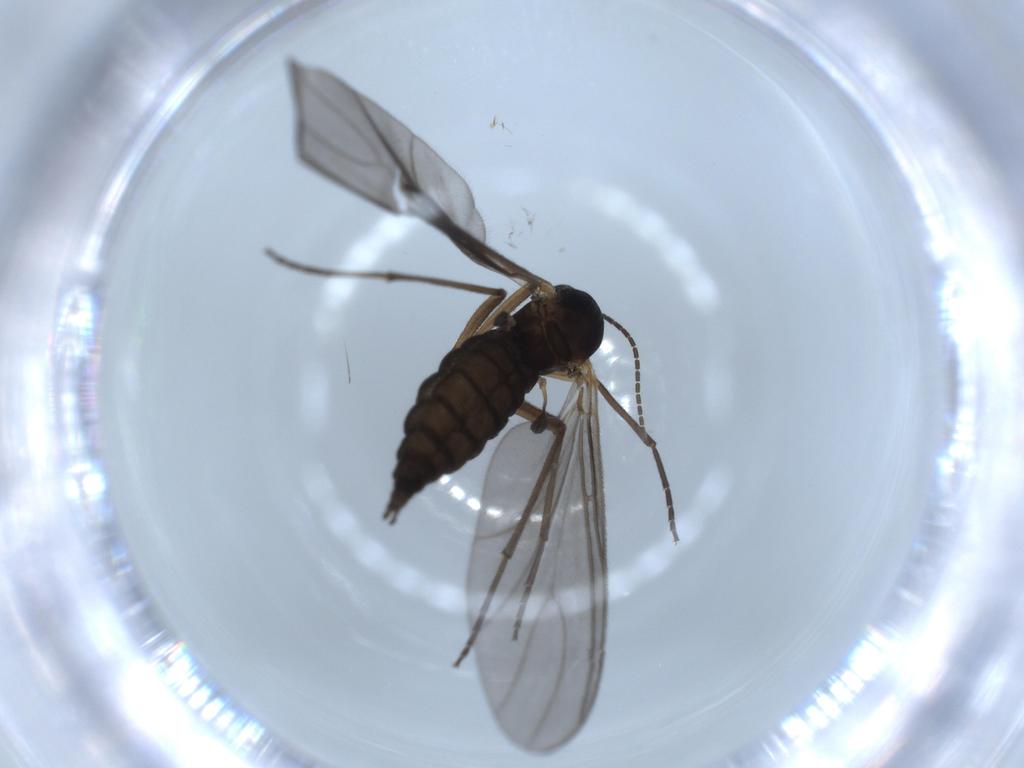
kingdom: Animalia
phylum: Arthropoda
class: Insecta
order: Diptera
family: Sciaridae
